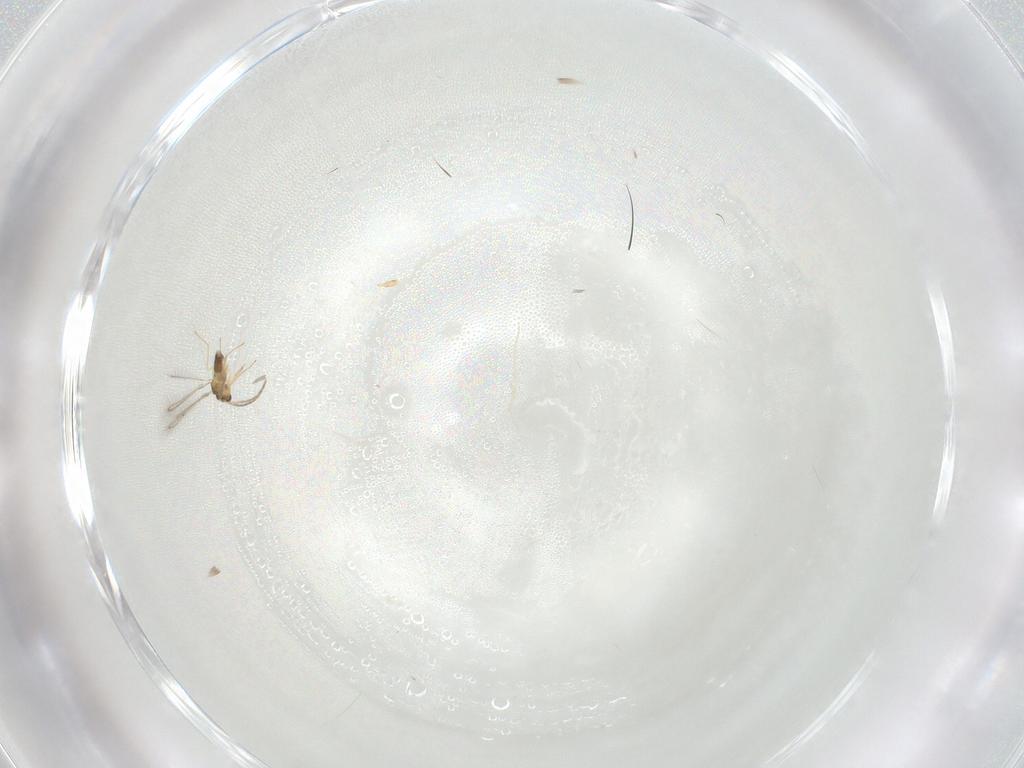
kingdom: Animalia
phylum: Arthropoda
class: Insecta
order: Hymenoptera
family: Mymaridae
